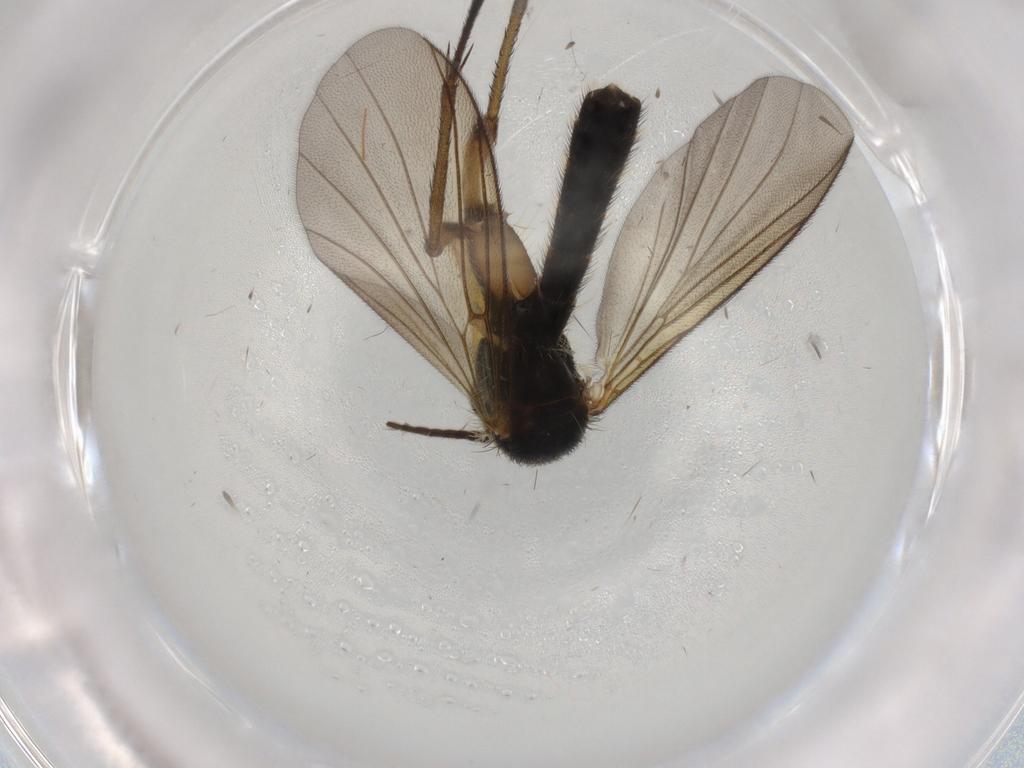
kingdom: Animalia
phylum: Arthropoda
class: Insecta
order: Diptera
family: Mycetophilidae
